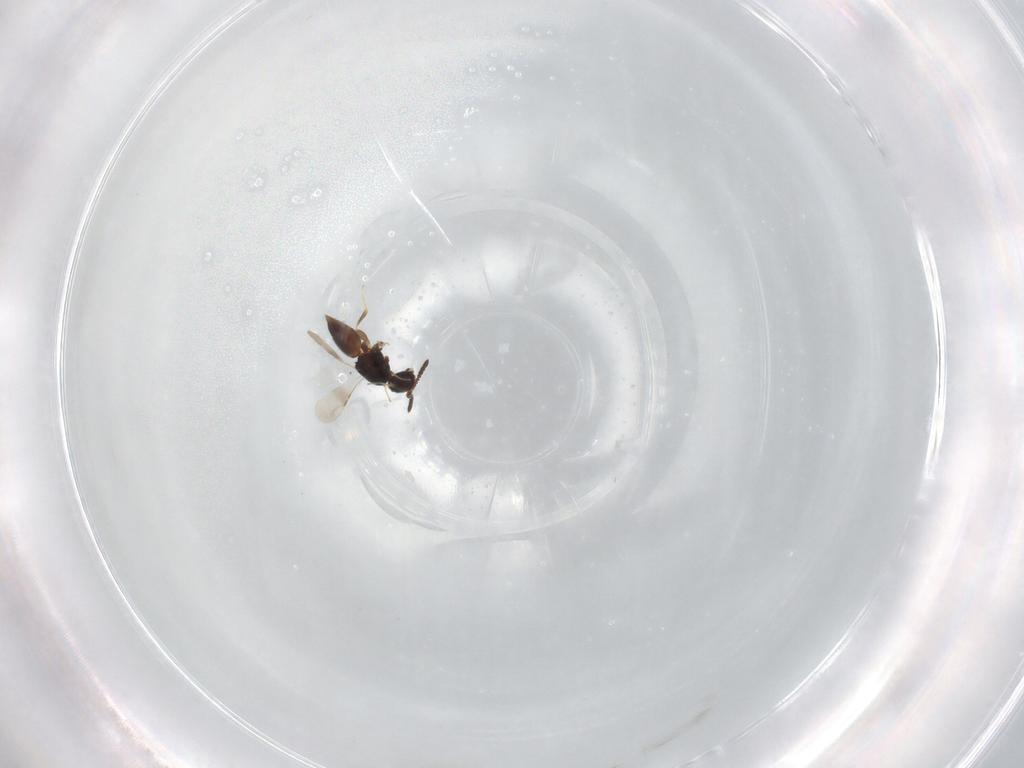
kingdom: Animalia
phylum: Arthropoda
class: Insecta
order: Hymenoptera
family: Ceraphronidae
